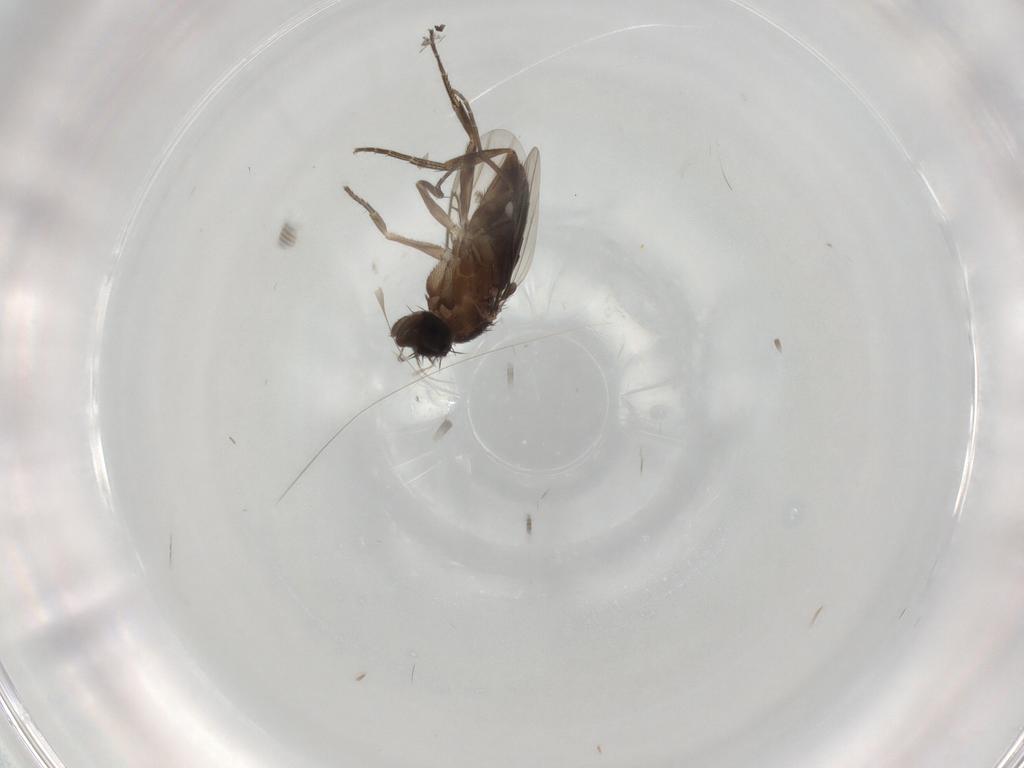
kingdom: Animalia
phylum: Arthropoda
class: Insecta
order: Diptera
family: Phoridae
